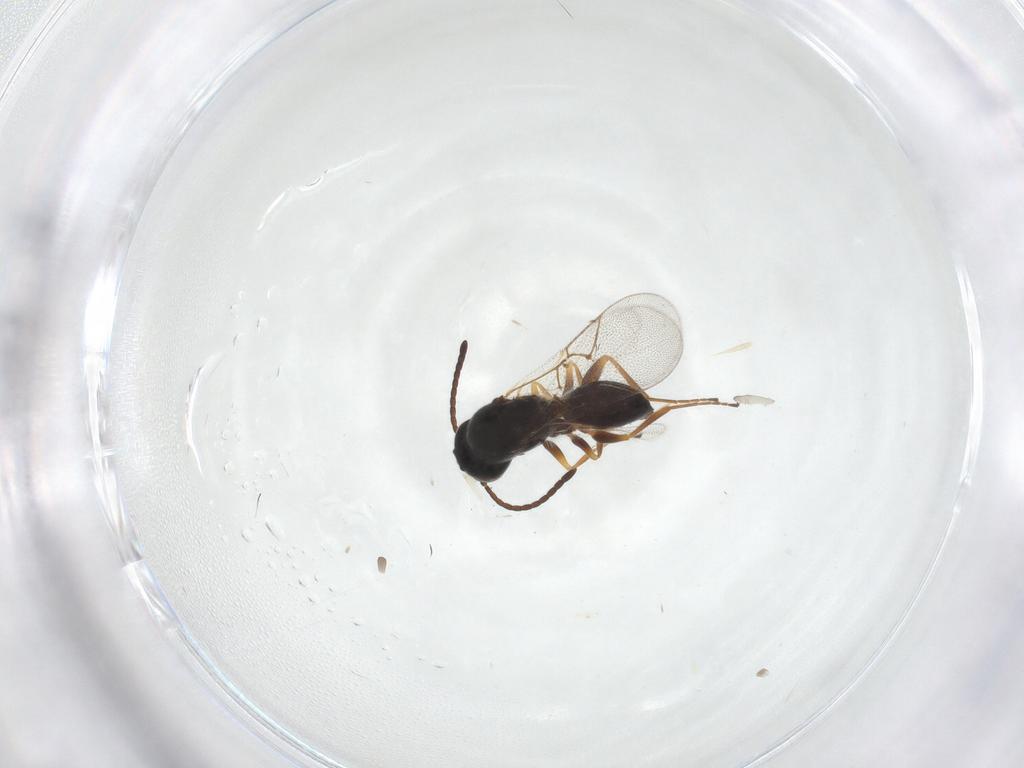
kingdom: Animalia
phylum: Arthropoda
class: Insecta
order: Hymenoptera
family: Figitidae
